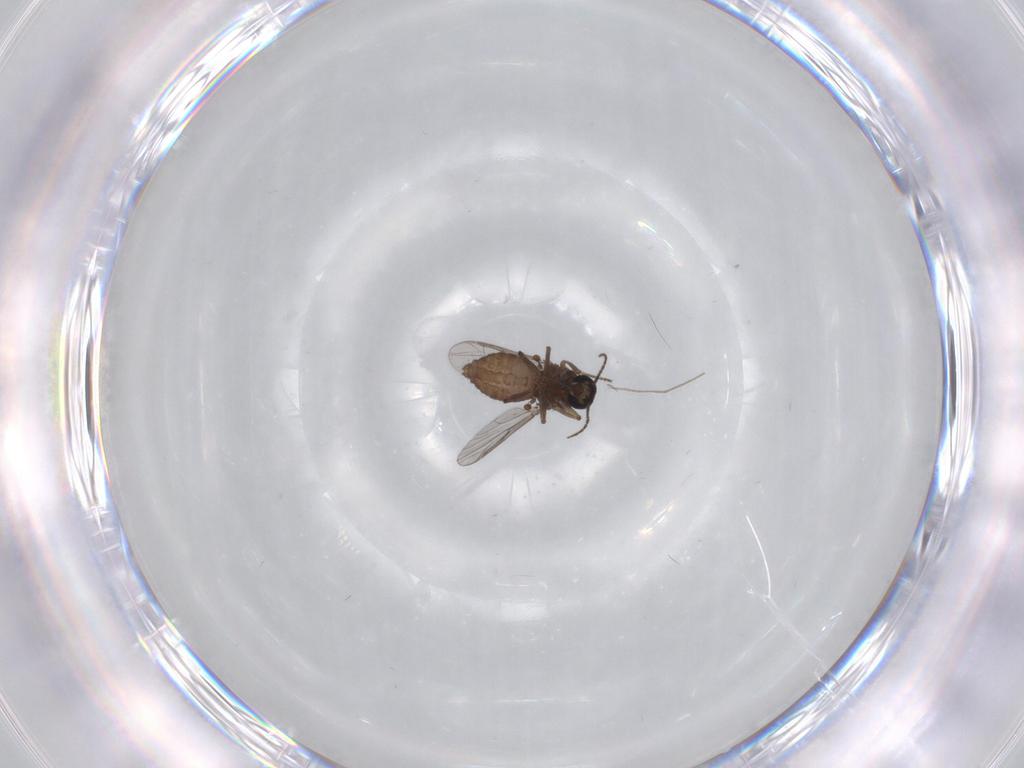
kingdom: Animalia
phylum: Arthropoda
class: Insecta
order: Diptera
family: Ceratopogonidae
